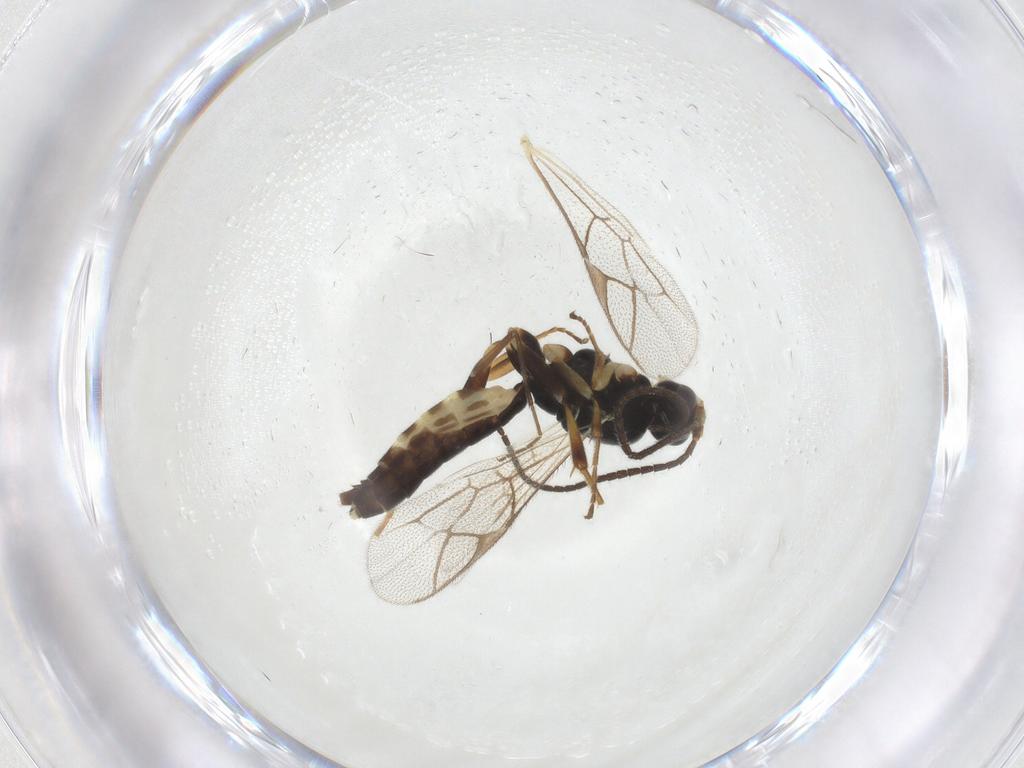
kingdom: Animalia
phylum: Arthropoda
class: Insecta
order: Hymenoptera
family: Ichneumonidae
